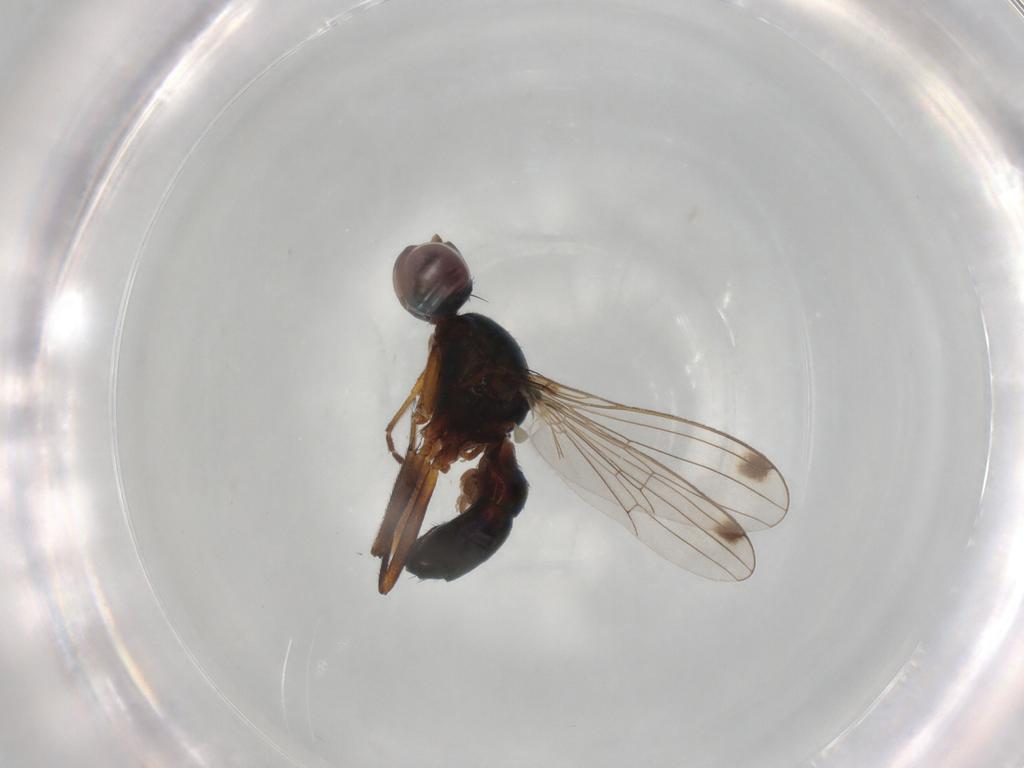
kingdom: Animalia
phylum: Arthropoda
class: Insecta
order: Diptera
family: Sepsidae
